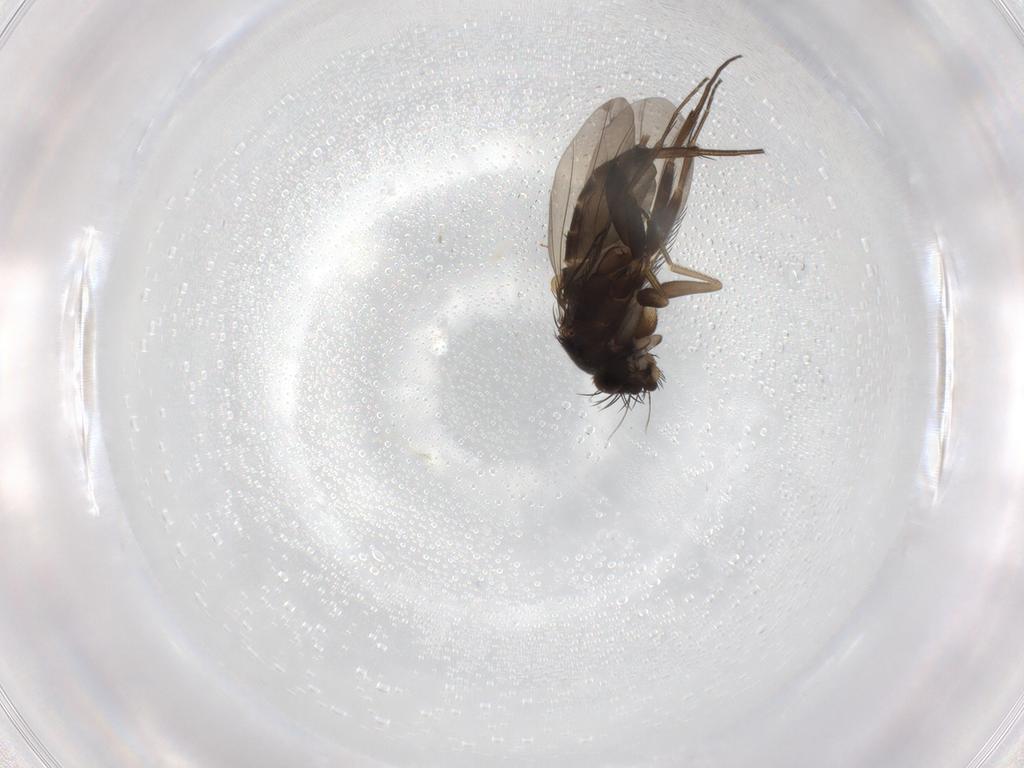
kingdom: Animalia
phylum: Arthropoda
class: Insecta
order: Diptera
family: Phoridae
